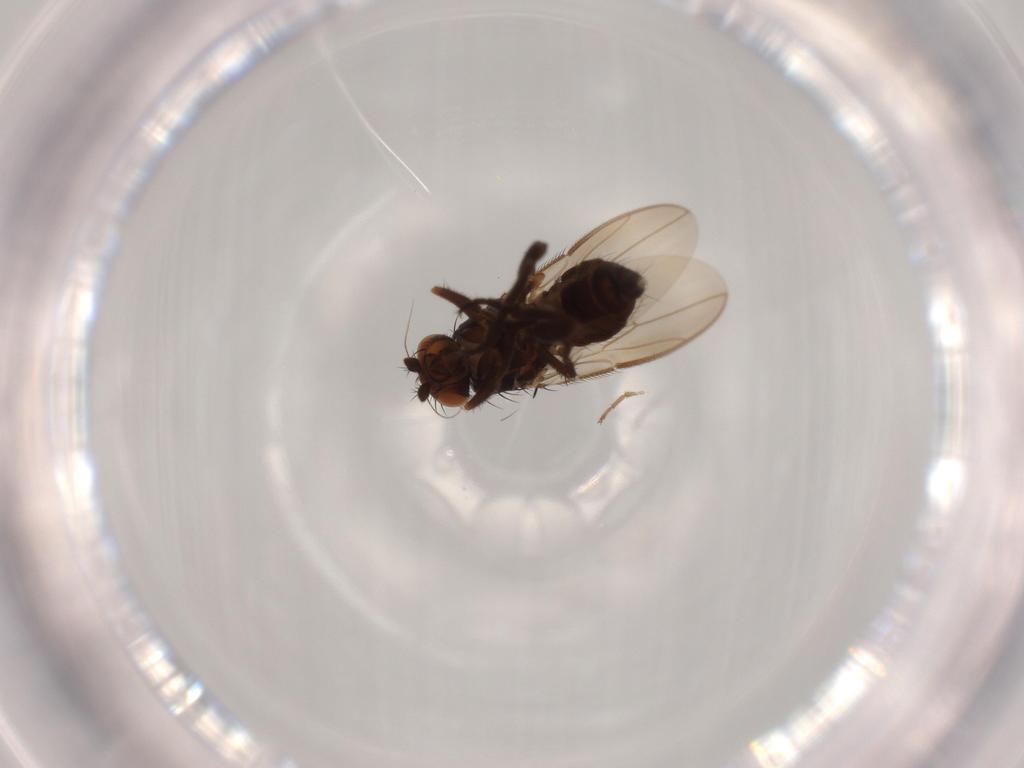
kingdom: Animalia
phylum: Arthropoda
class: Insecta
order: Diptera
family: Sphaeroceridae
